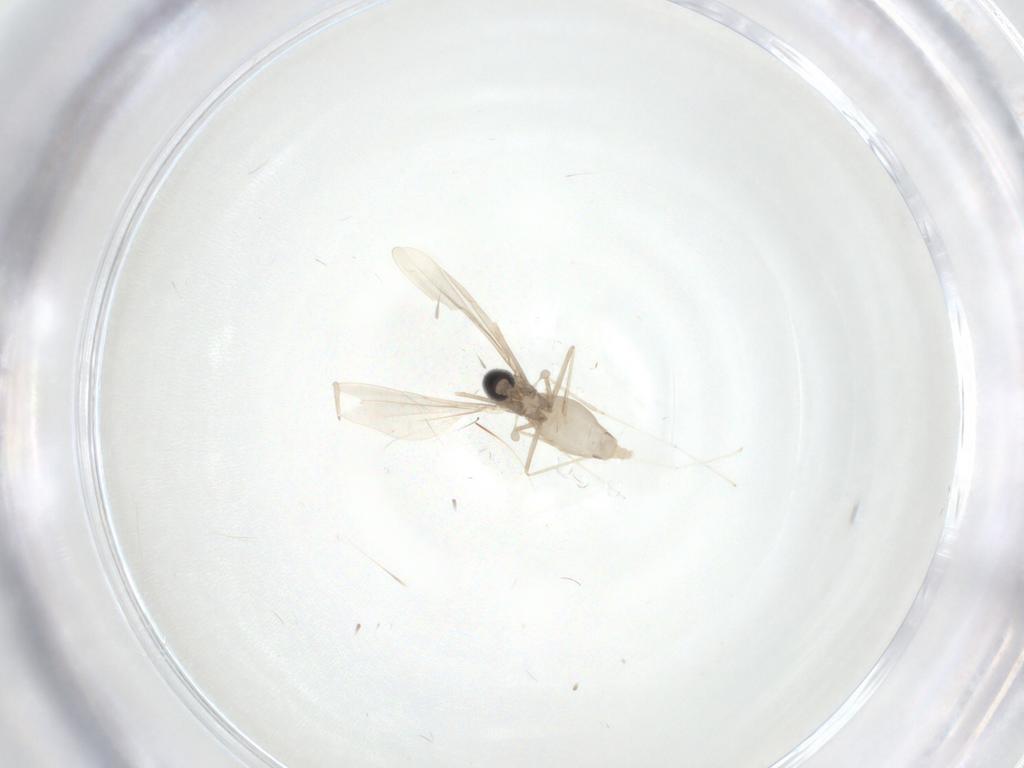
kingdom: Animalia
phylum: Arthropoda
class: Insecta
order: Diptera
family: Cecidomyiidae
